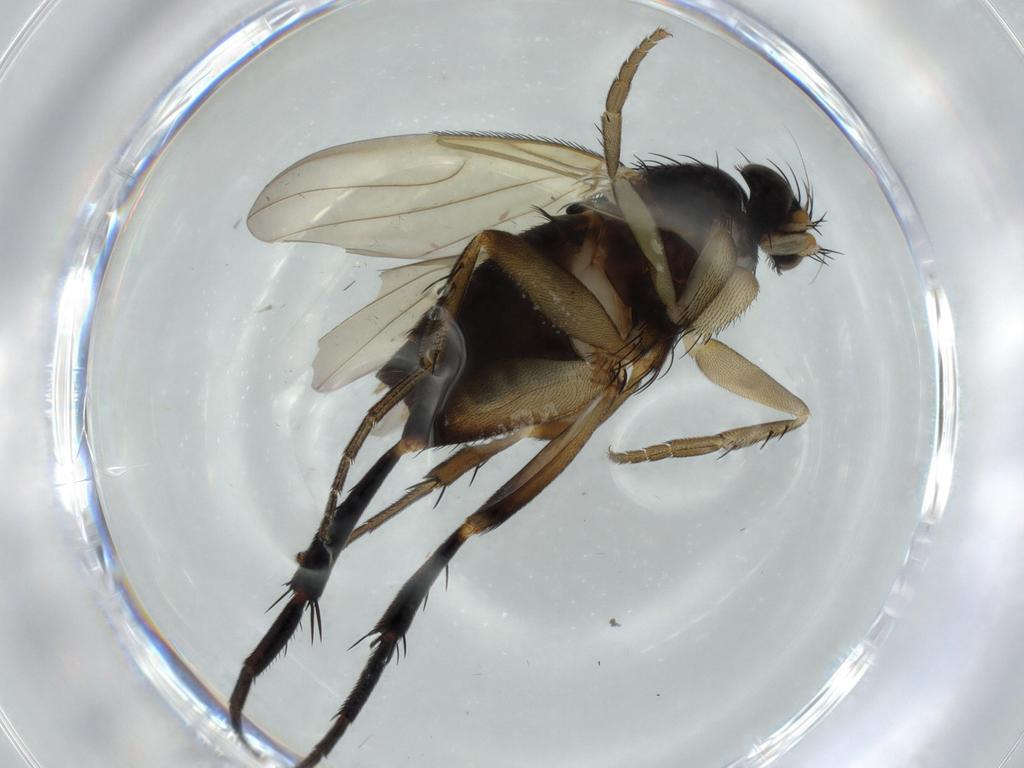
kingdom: Animalia
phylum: Arthropoda
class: Insecta
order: Diptera
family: Phoridae
